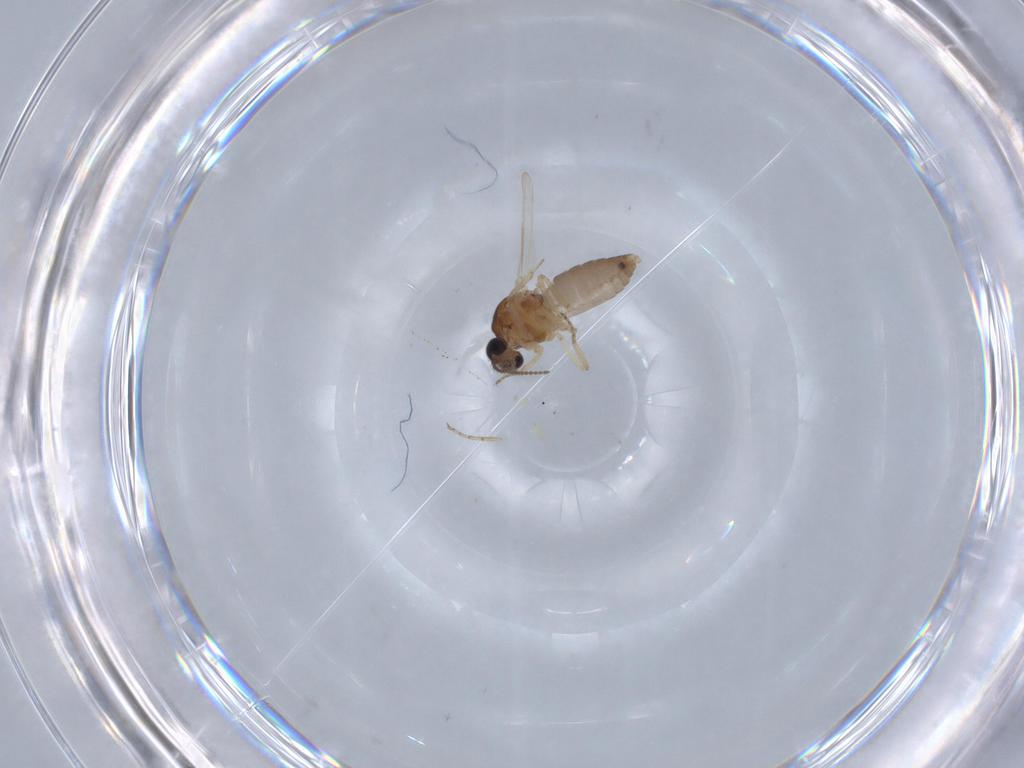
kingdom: Animalia
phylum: Arthropoda
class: Insecta
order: Diptera
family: Ceratopogonidae
